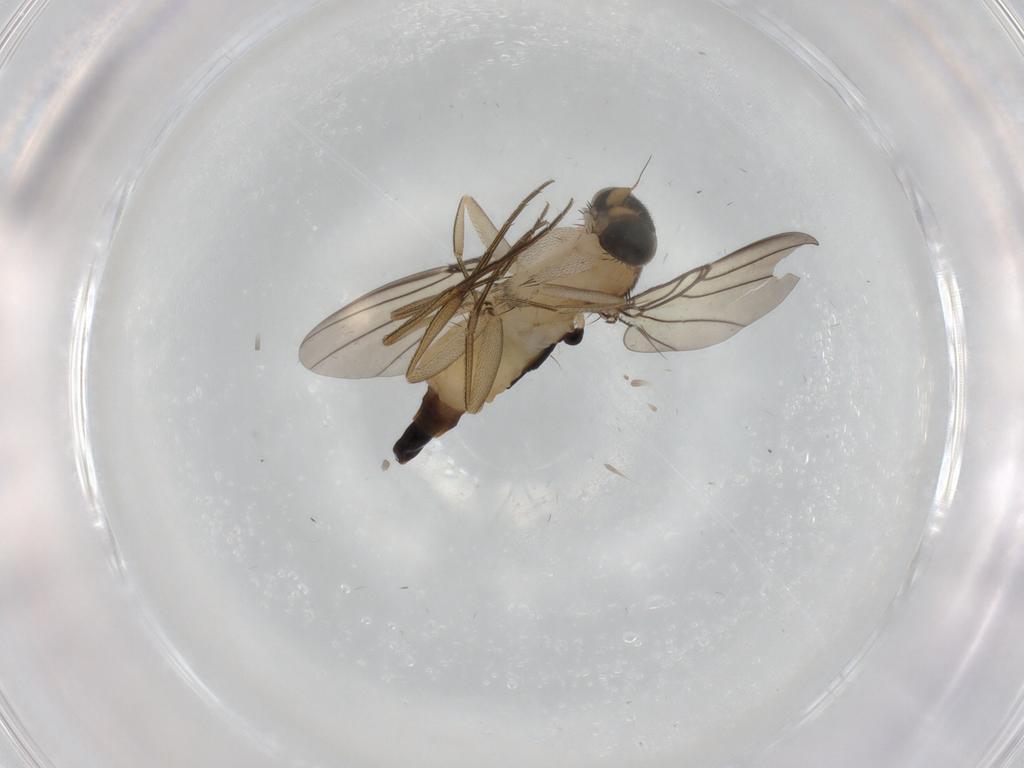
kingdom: Animalia
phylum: Arthropoda
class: Insecta
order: Diptera
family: Phoridae
